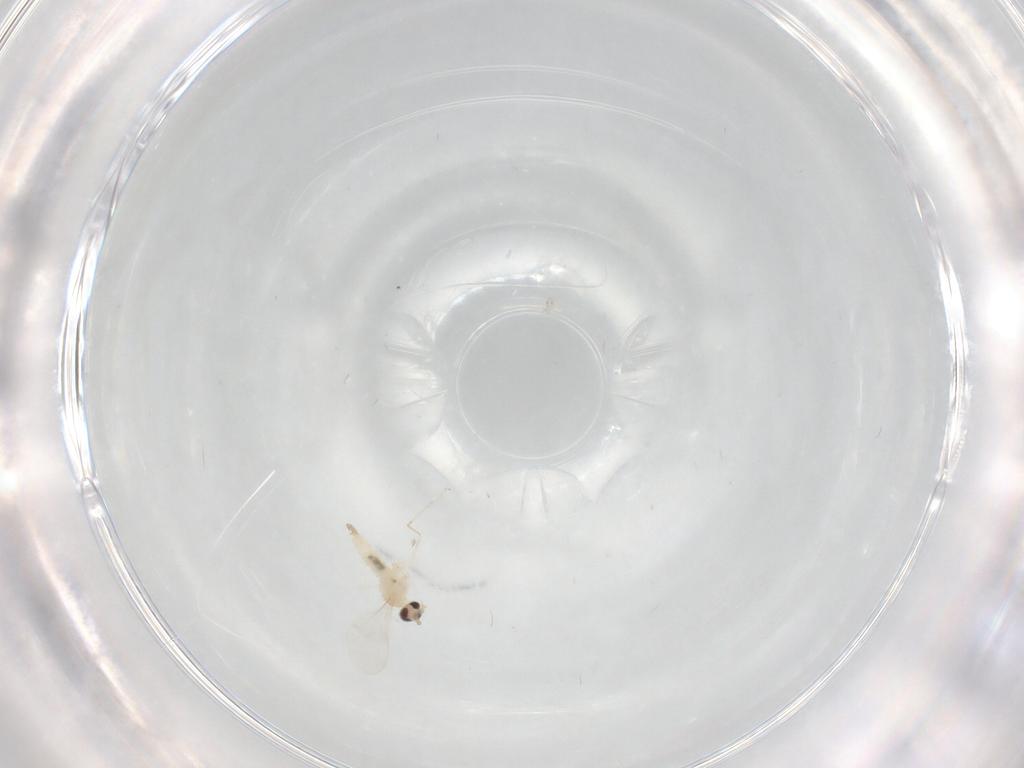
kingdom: Animalia
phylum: Arthropoda
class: Insecta
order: Diptera
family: Cecidomyiidae
